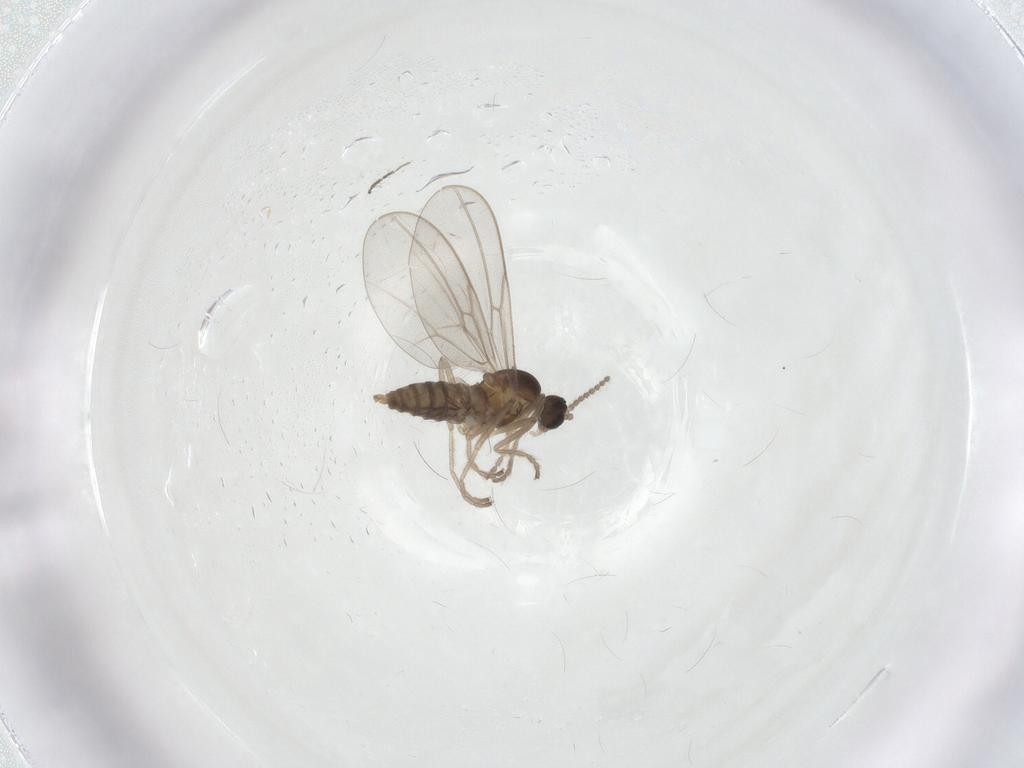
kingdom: Animalia
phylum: Arthropoda
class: Insecta
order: Diptera
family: Cecidomyiidae
